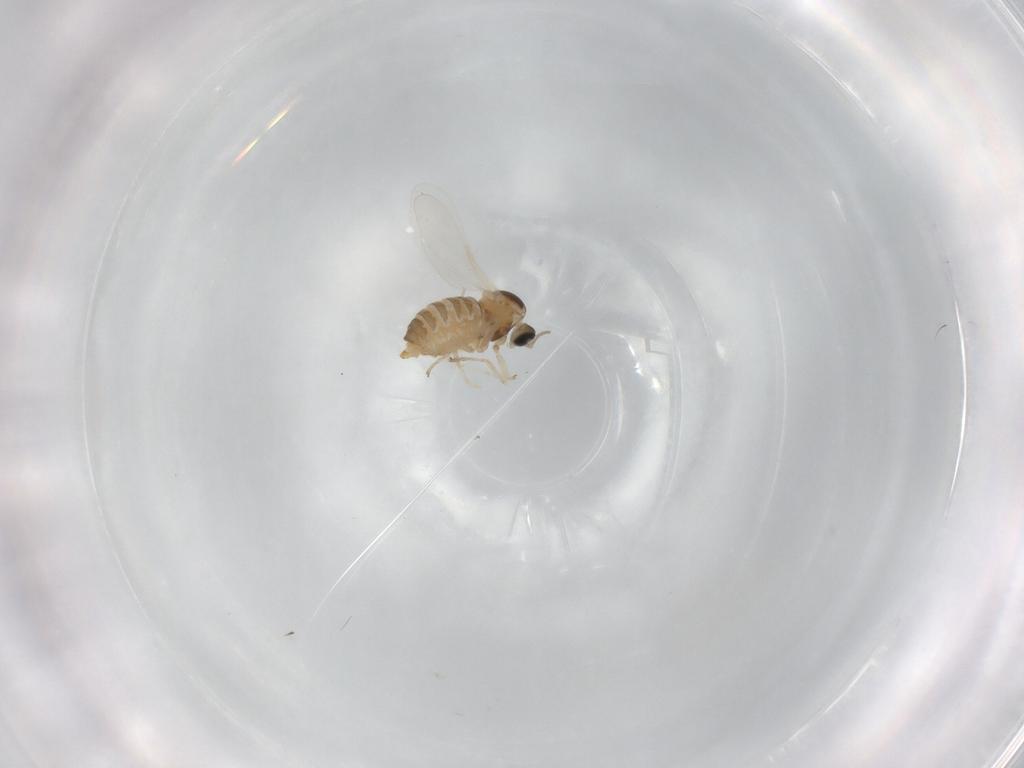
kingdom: Animalia
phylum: Arthropoda
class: Insecta
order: Diptera
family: Cecidomyiidae
